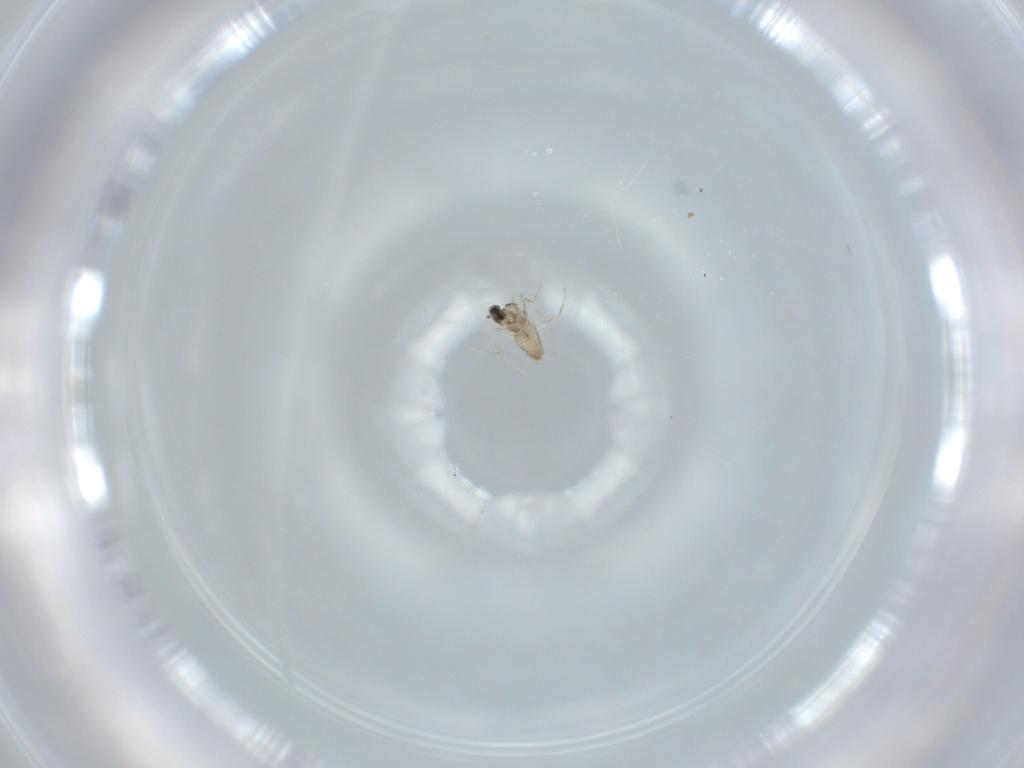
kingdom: Animalia
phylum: Arthropoda
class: Insecta
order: Diptera
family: Cecidomyiidae
